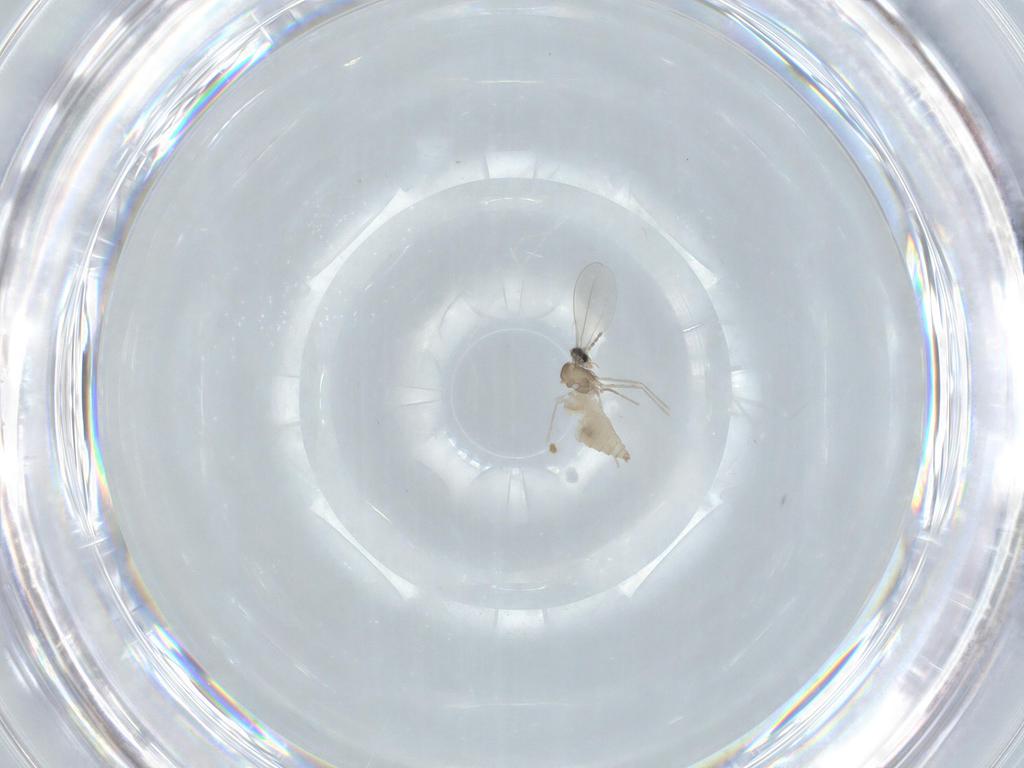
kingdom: Animalia
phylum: Arthropoda
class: Insecta
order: Diptera
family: Cecidomyiidae
